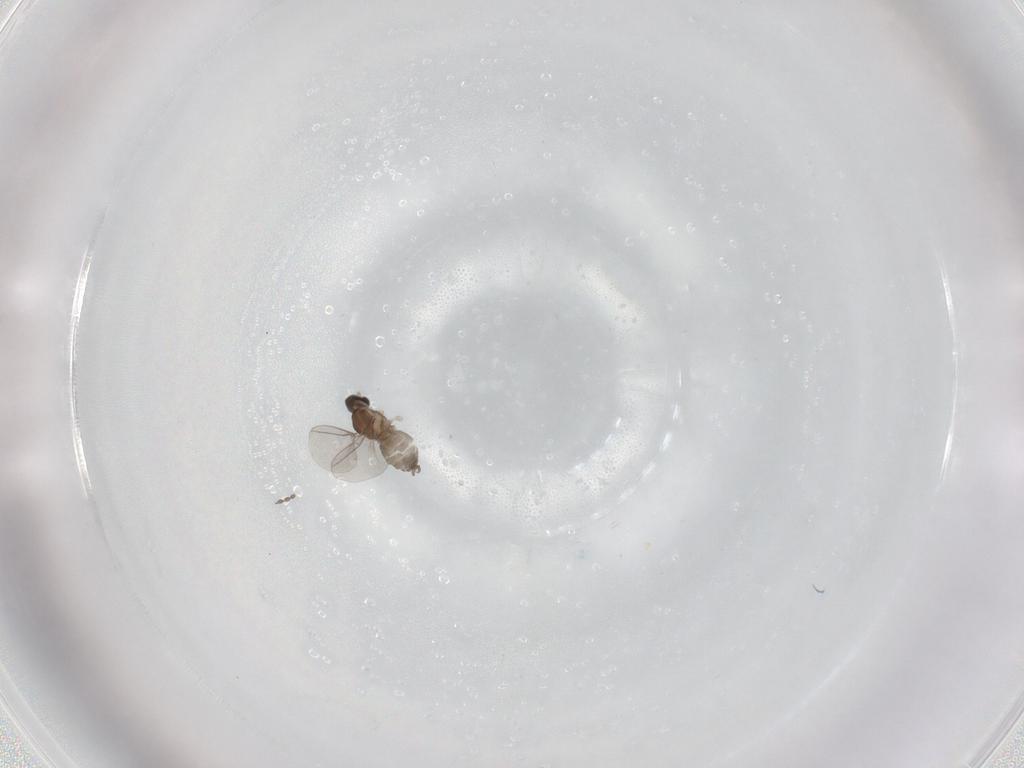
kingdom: Animalia
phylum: Arthropoda
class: Insecta
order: Diptera
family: Cecidomyiidae
